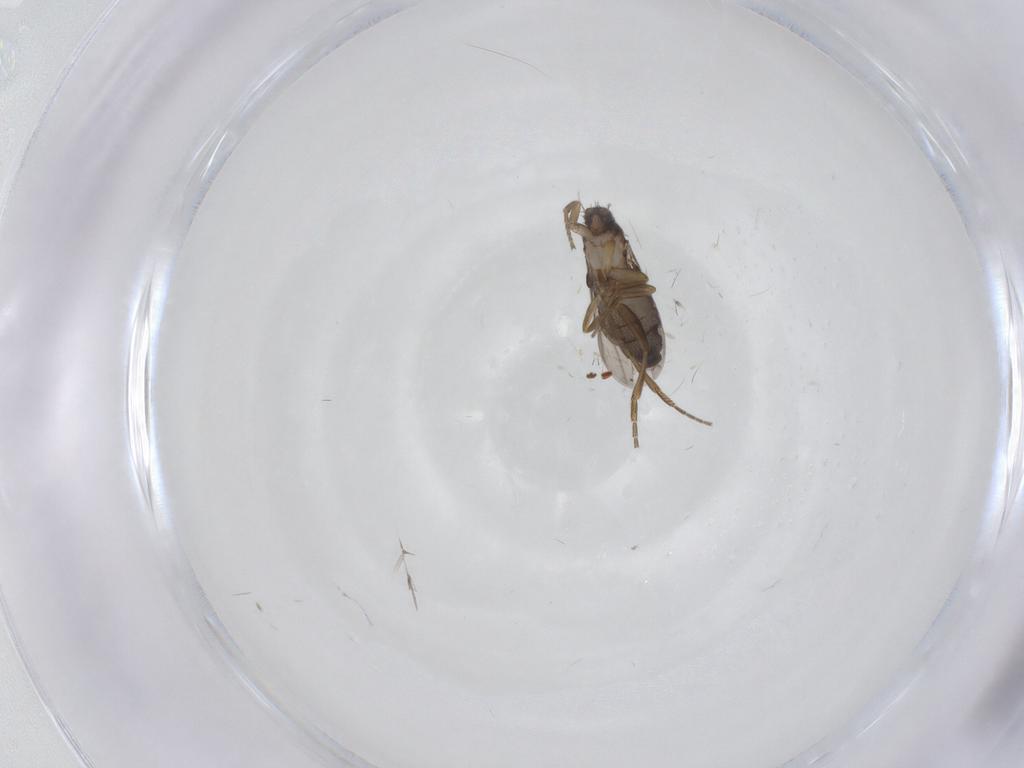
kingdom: Animalia
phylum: Arthropoda
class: Insecta
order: Diptera
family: Phoridae
